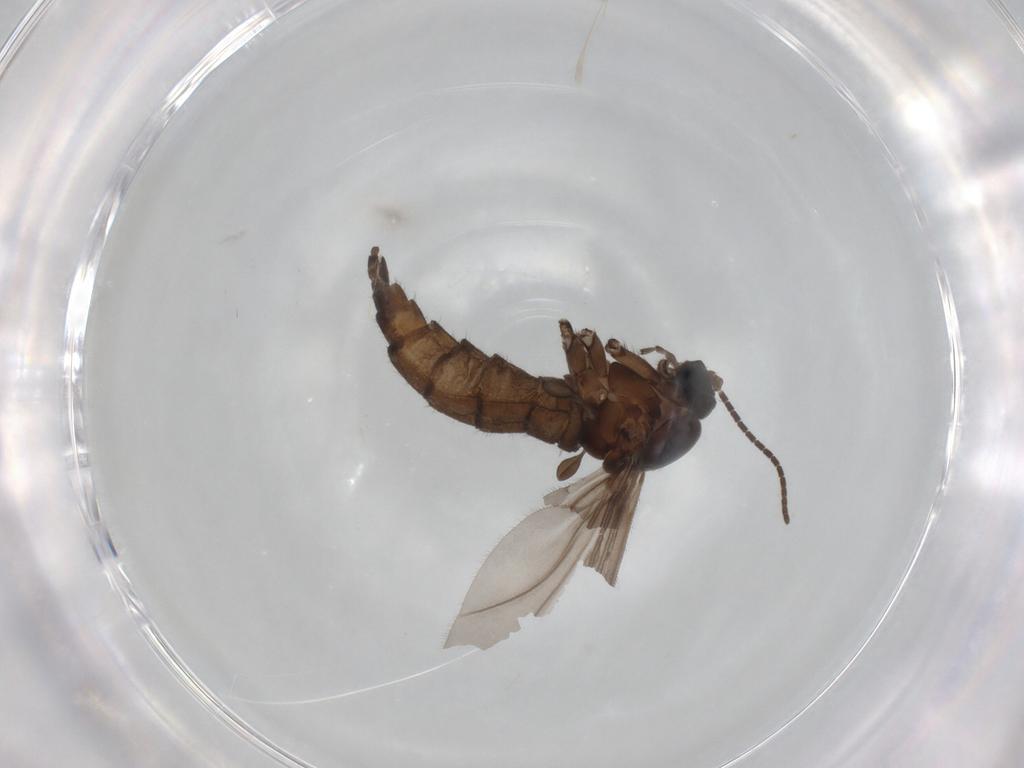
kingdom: Animalia
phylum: Arthropoda
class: Insecta
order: Diptera
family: Sciaridae
